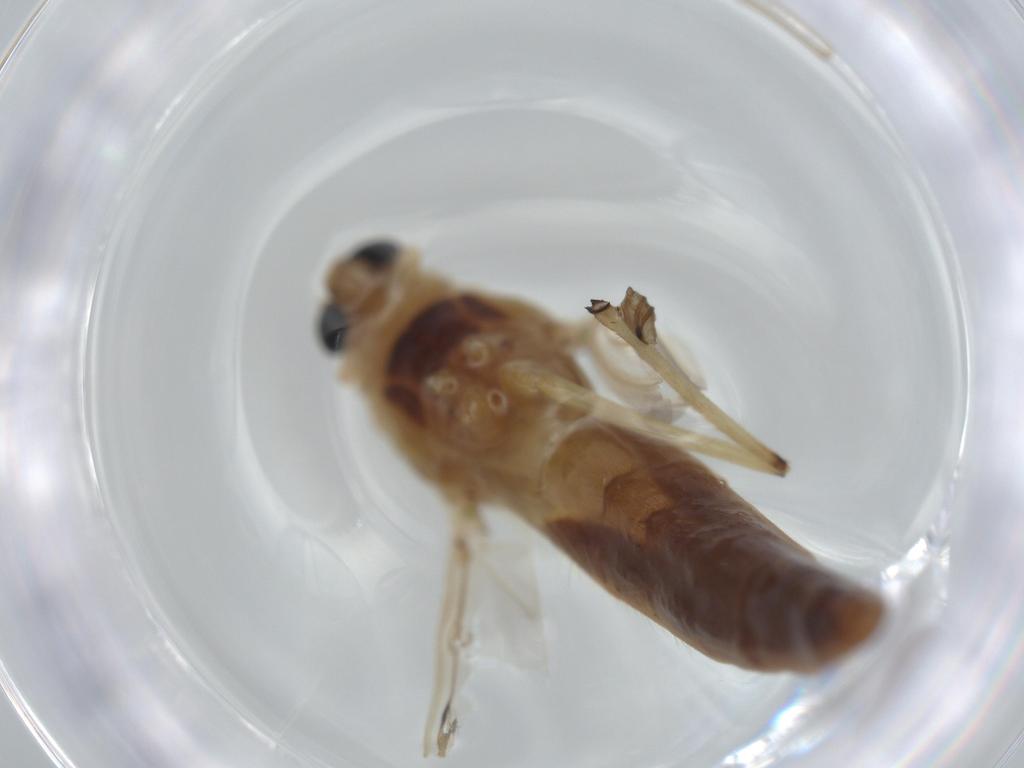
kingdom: Animalia
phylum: Arthropoda
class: Insecta
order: Diptera
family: Chironomidae
